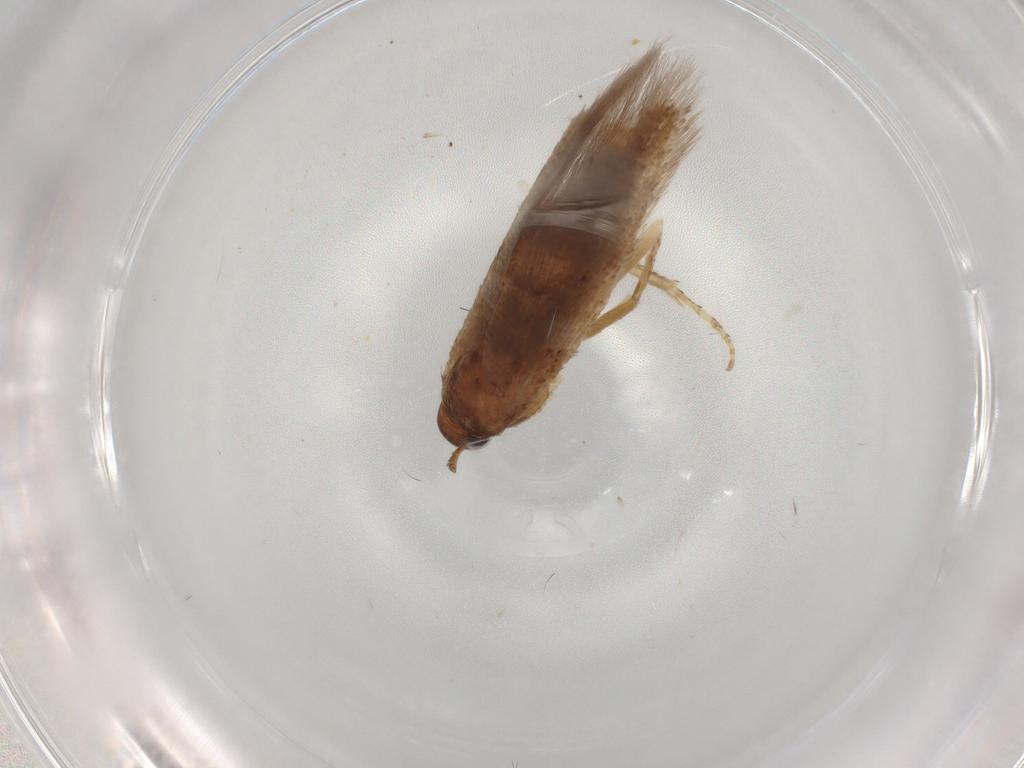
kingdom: Animalia
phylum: Arthropoda
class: Insecta
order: Lepidoptera
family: Gelechiidae
